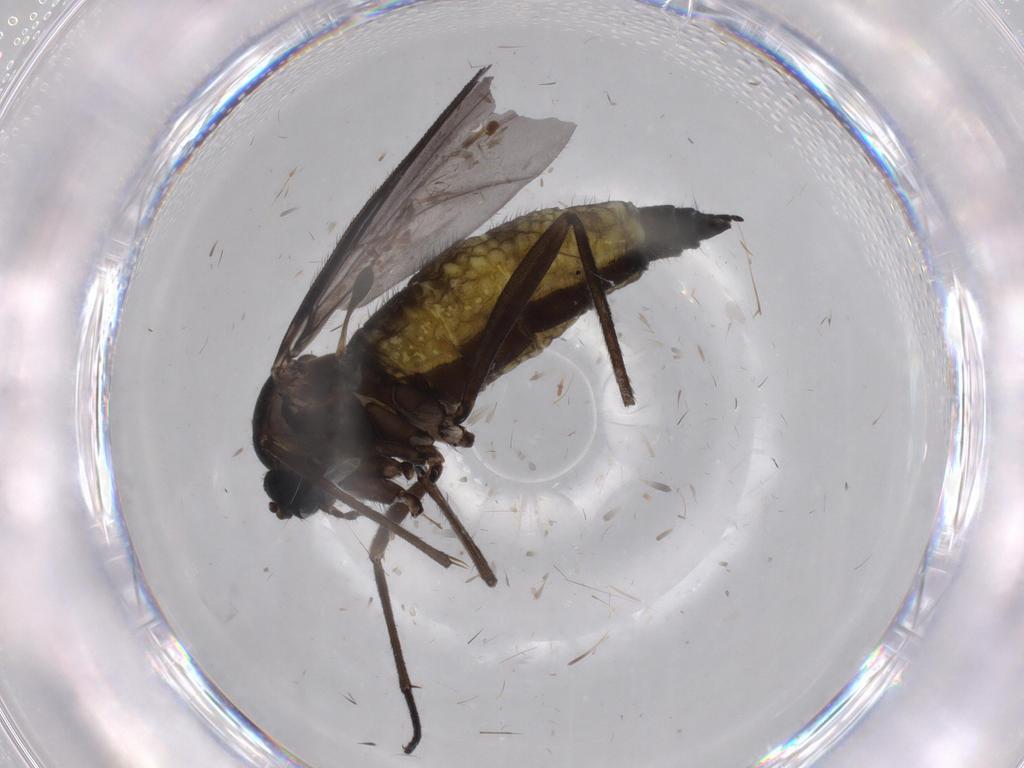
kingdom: Animalia
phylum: Arthropoda
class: Insecta
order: Diptera
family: Sciaridae
